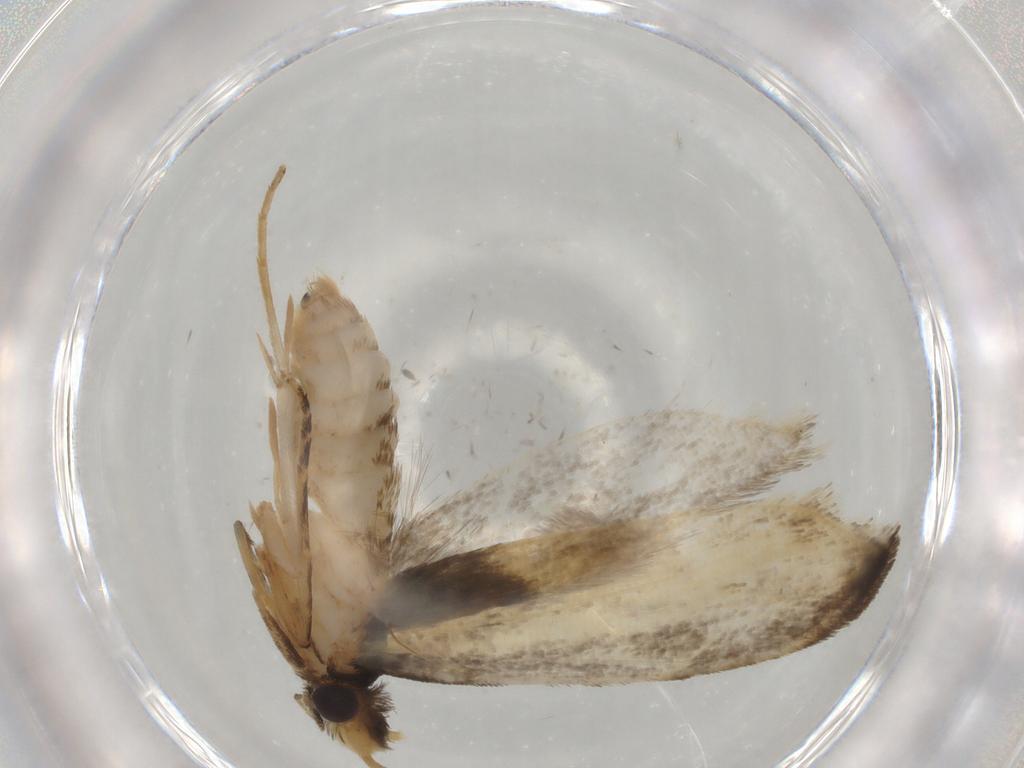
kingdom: Animalia
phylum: Arthropoda
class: Insecta
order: Lepidoptera
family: Tineidae
